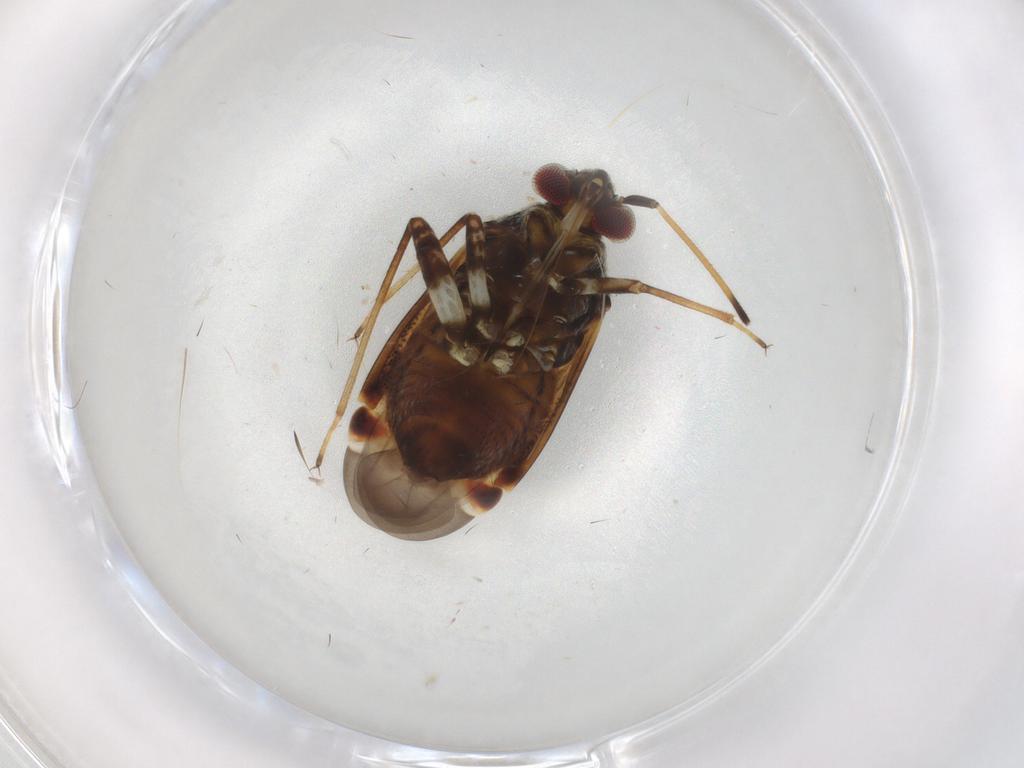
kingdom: Animalia
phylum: Arthropoda
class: Insecta
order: Hemiptera
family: Miridae
